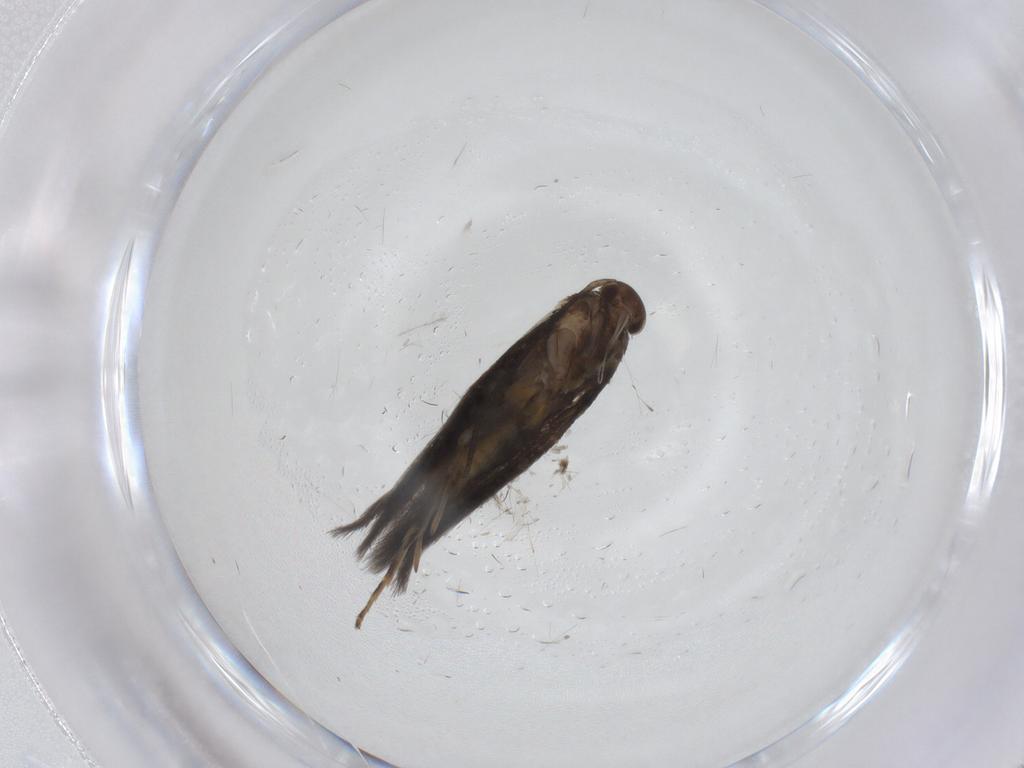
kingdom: Animalia
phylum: Arthropoda
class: Insecta
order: Lepidoptera
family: Elachistidae
